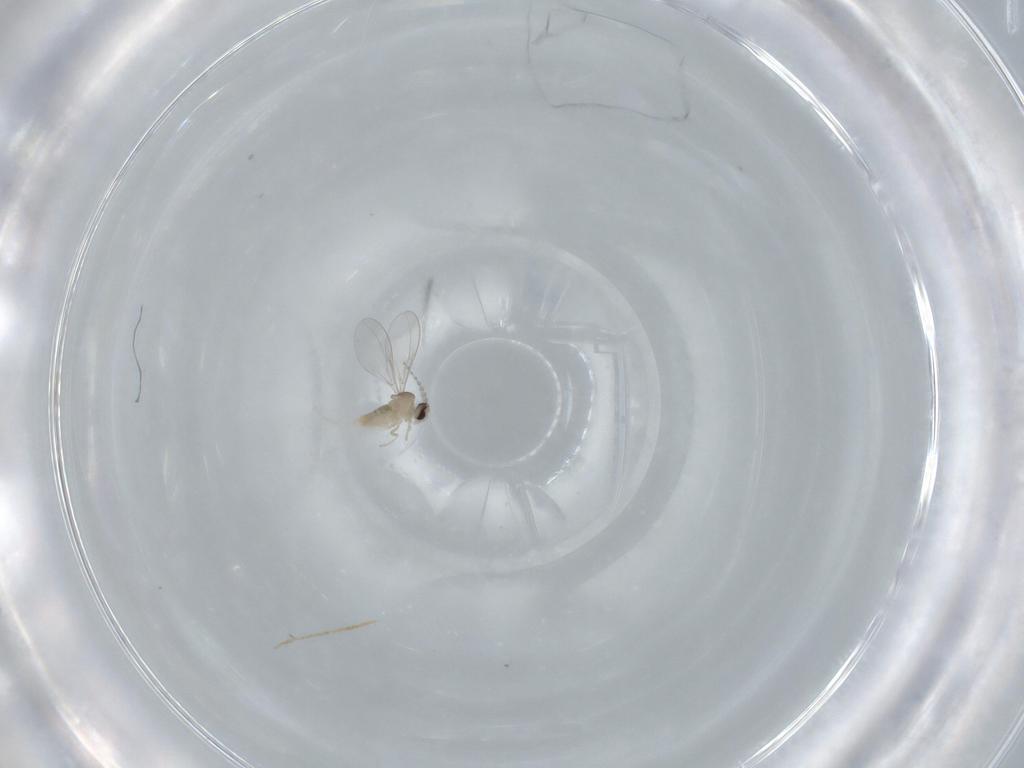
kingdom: Animalia
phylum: Arthropoda
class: Insecta
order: Diptera
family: Cecidomyiidae
